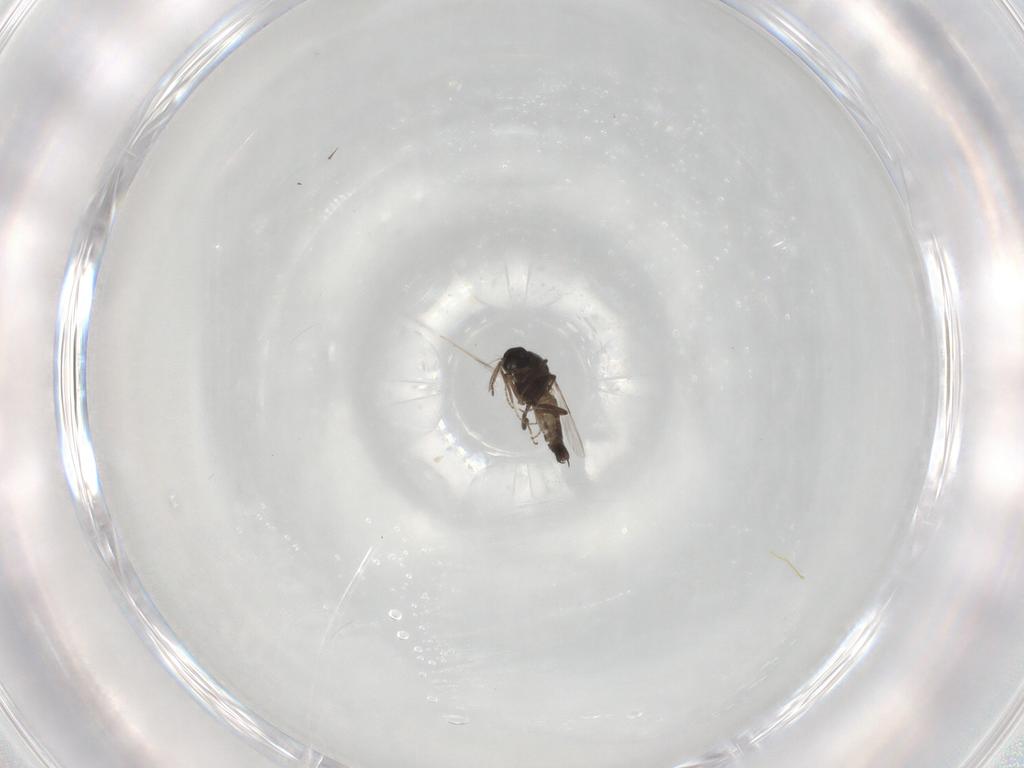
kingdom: Animalia
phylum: Arthropoda
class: Insecta
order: Diptera
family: Ceratopogonidae
